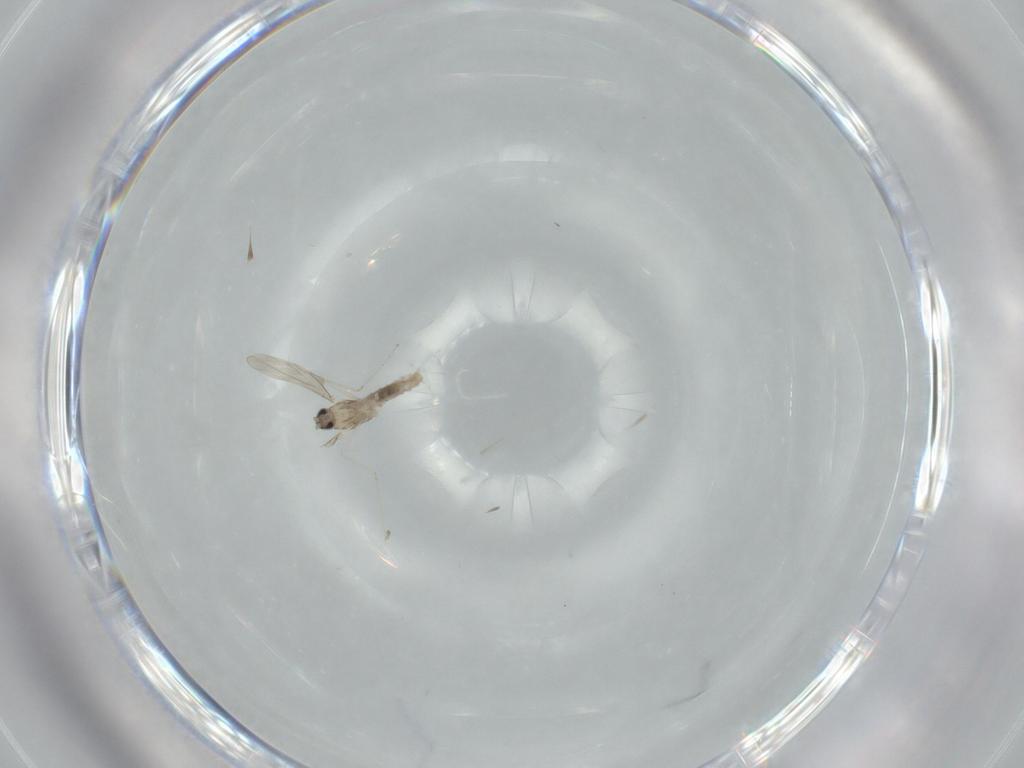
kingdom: Animalia
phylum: Arthropoda
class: Insecta
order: Diptera
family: Cecidomyiidae
